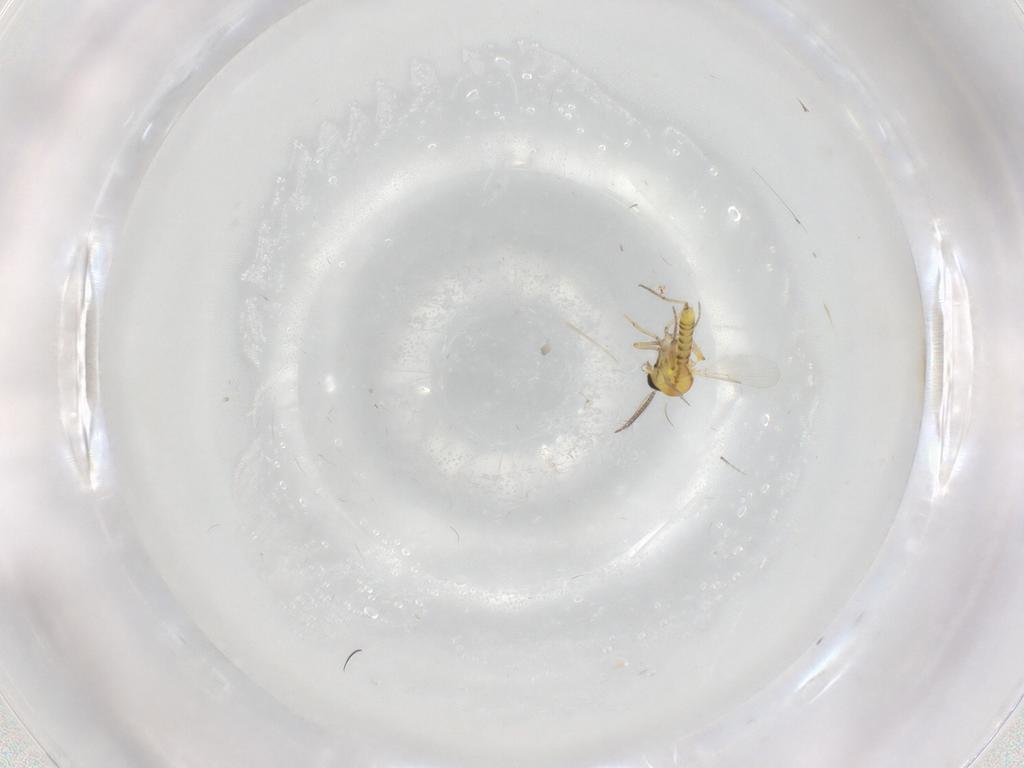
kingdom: Animalia
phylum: Arthropoda
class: Insecta
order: Diptera
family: Ceratopogonidae
